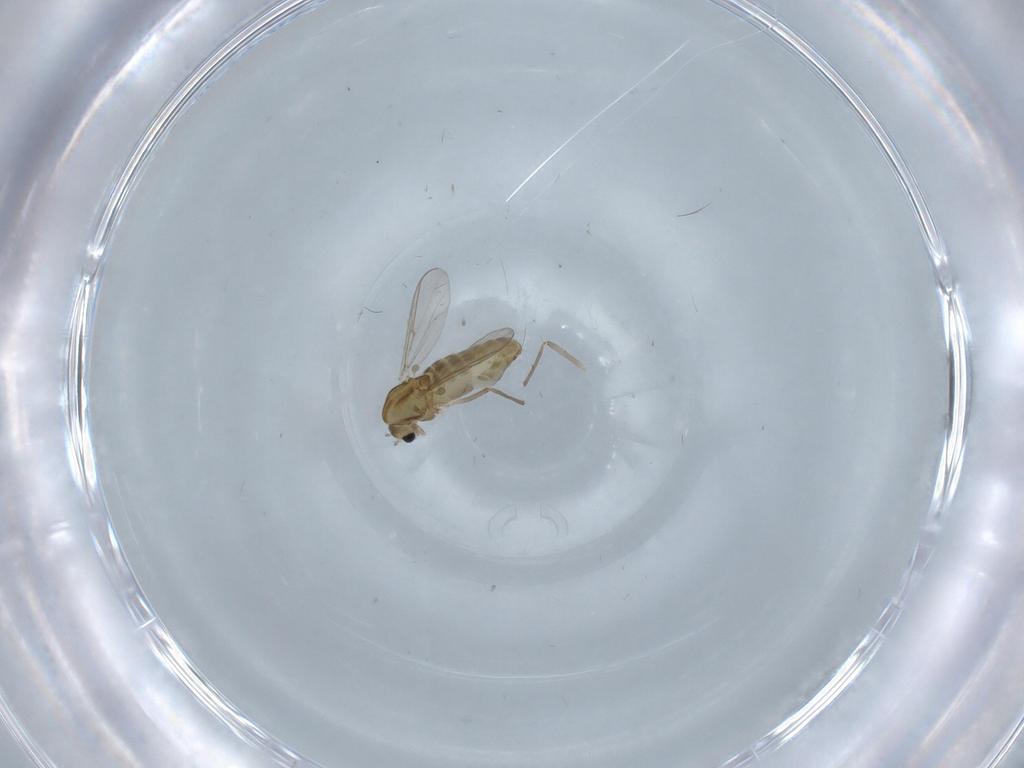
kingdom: Animalia
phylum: Arthropoda
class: Insecta
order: Diptera
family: Chironomidae
